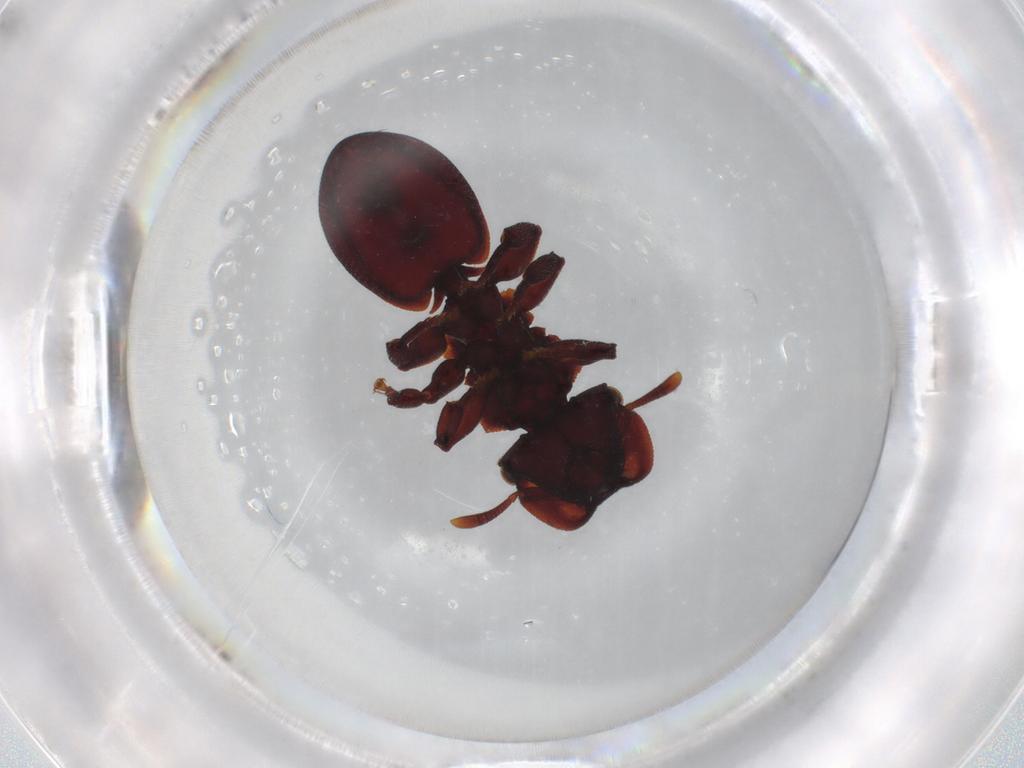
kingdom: Animalia
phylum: Arthropoda
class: Insecta
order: Hymenoptera
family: Formicidae
